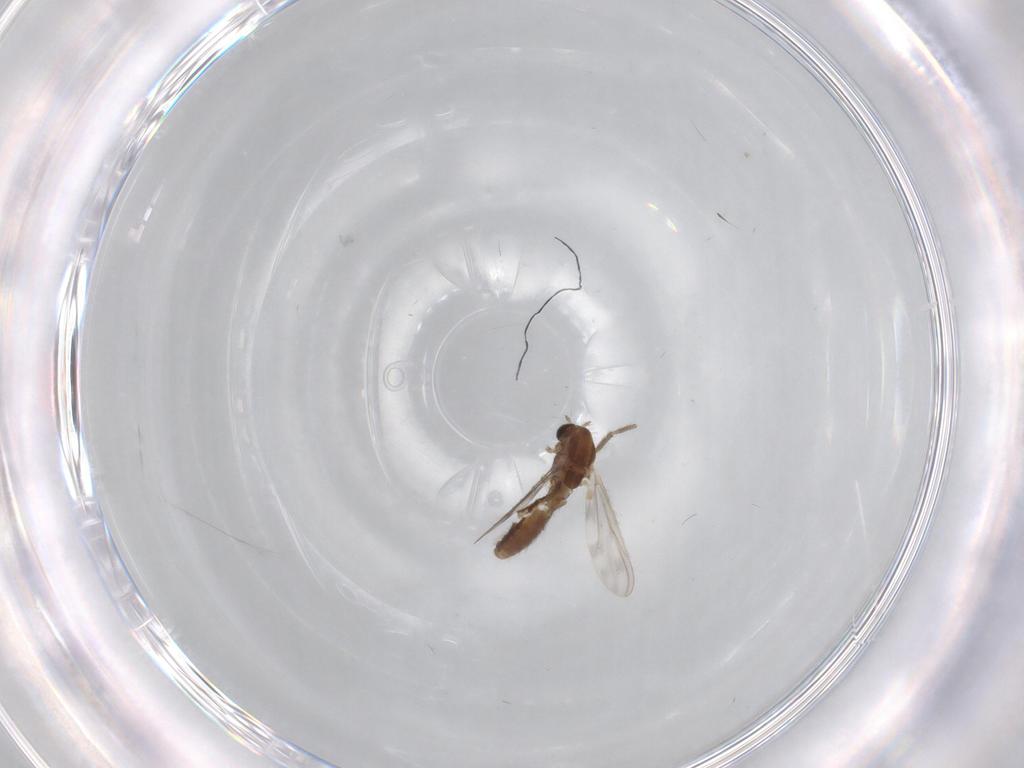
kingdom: Animalia
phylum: Arthropoda
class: Insecta
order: Diptera
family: Chironomidae
